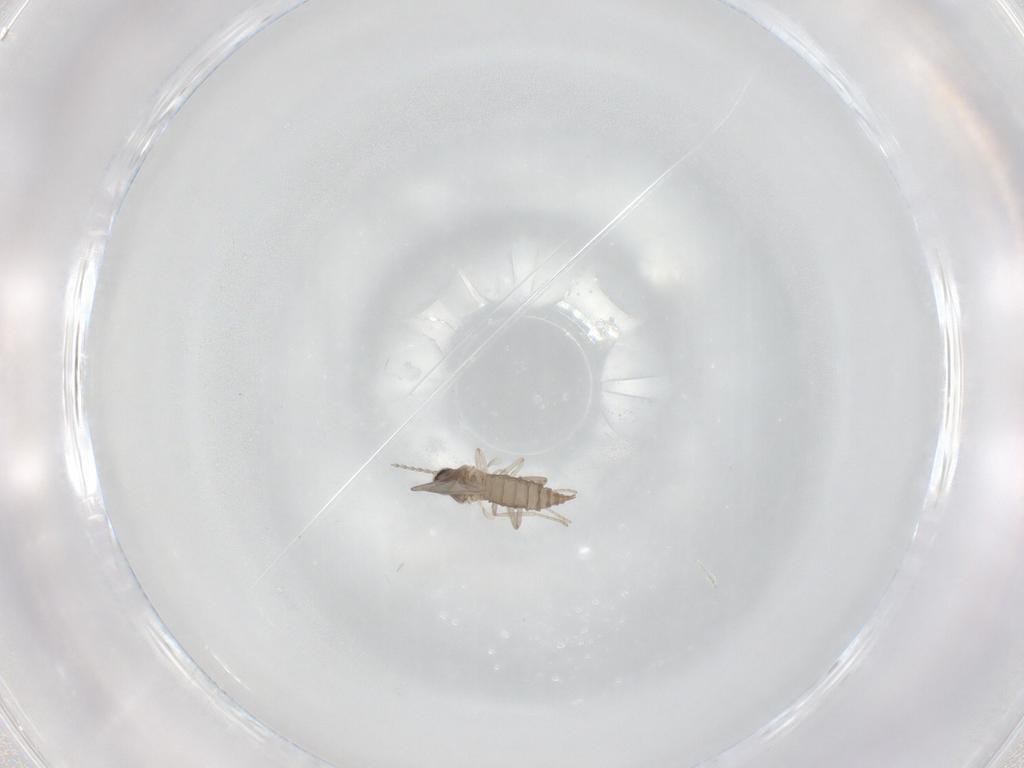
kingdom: Animalia
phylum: Arthropoda
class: Insecta
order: Diptera
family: Cecidomyiidae
